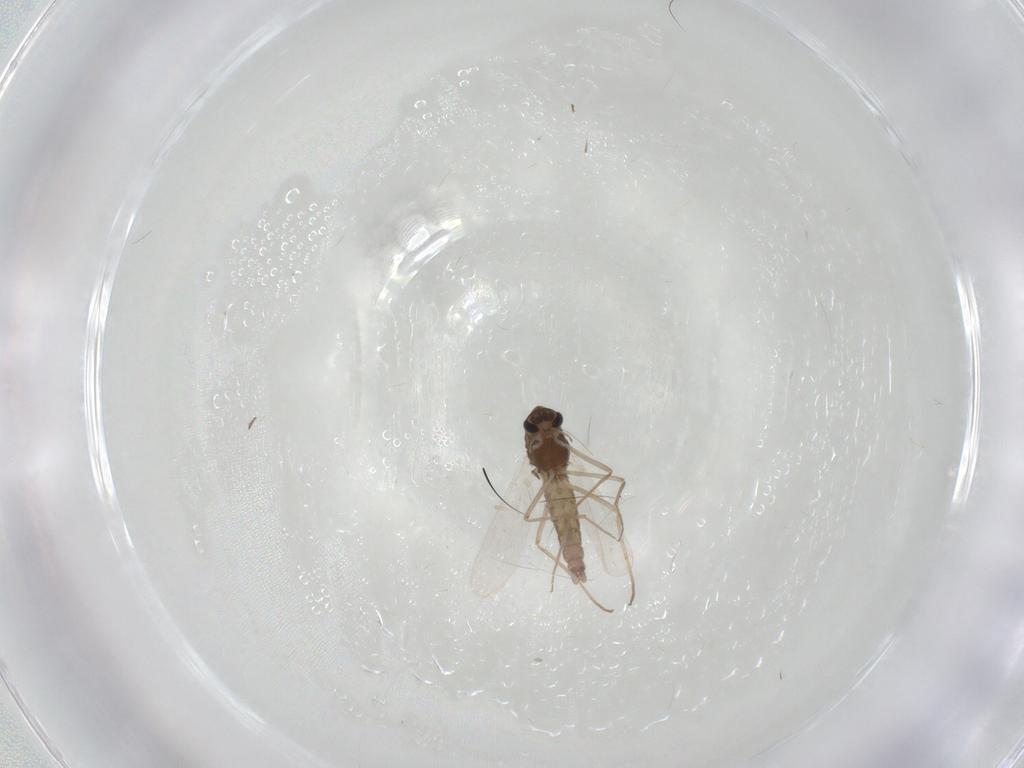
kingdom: Animalia
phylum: Arthropoda
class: Insecta
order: Diptera
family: Chironomidae
